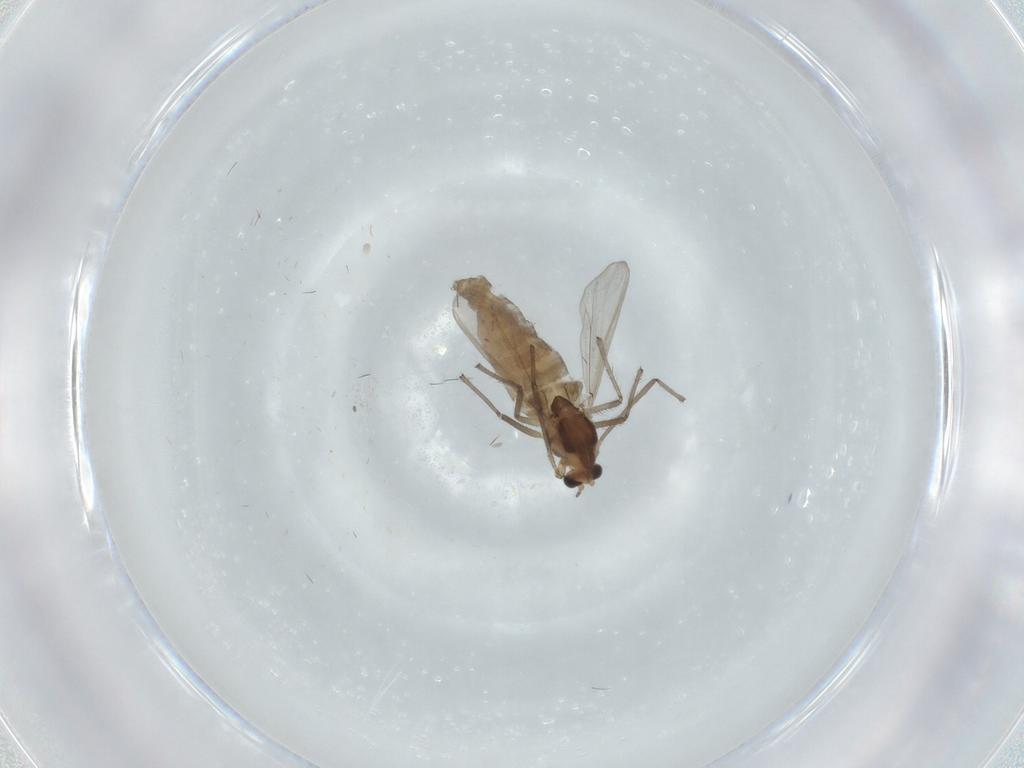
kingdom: Animalia
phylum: Arthropoda
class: Insecta
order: Diptera
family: Chironomidae
